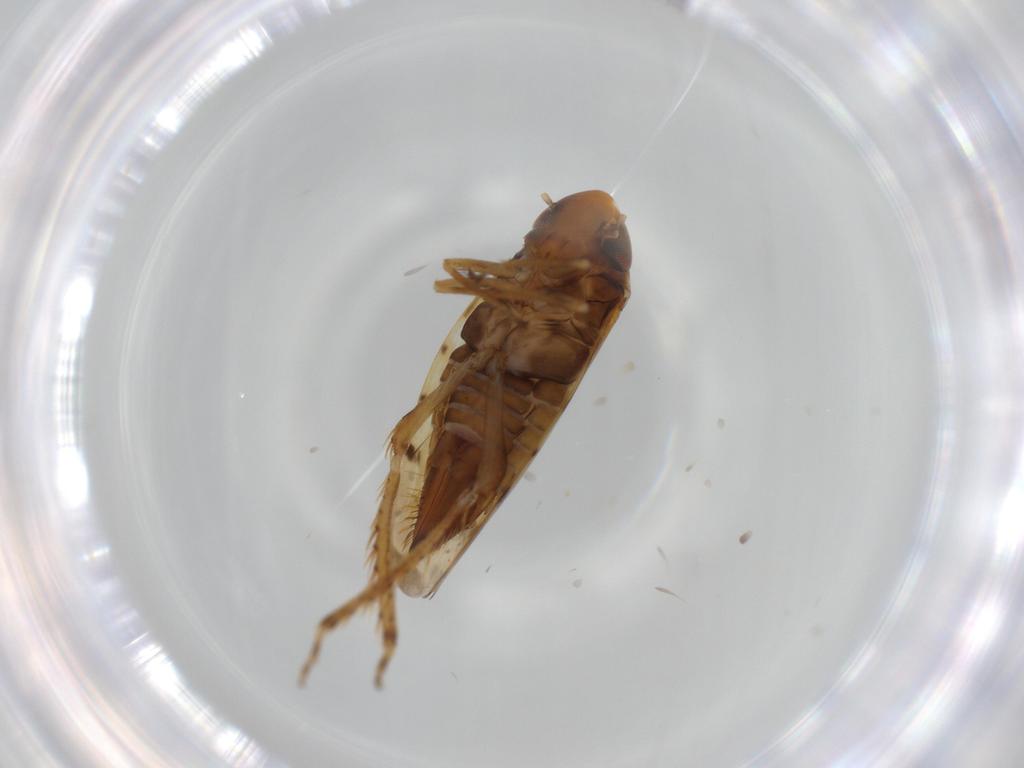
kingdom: Animalia
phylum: Arthropoda
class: Insecta
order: Hemiptera
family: Cicadellidae
